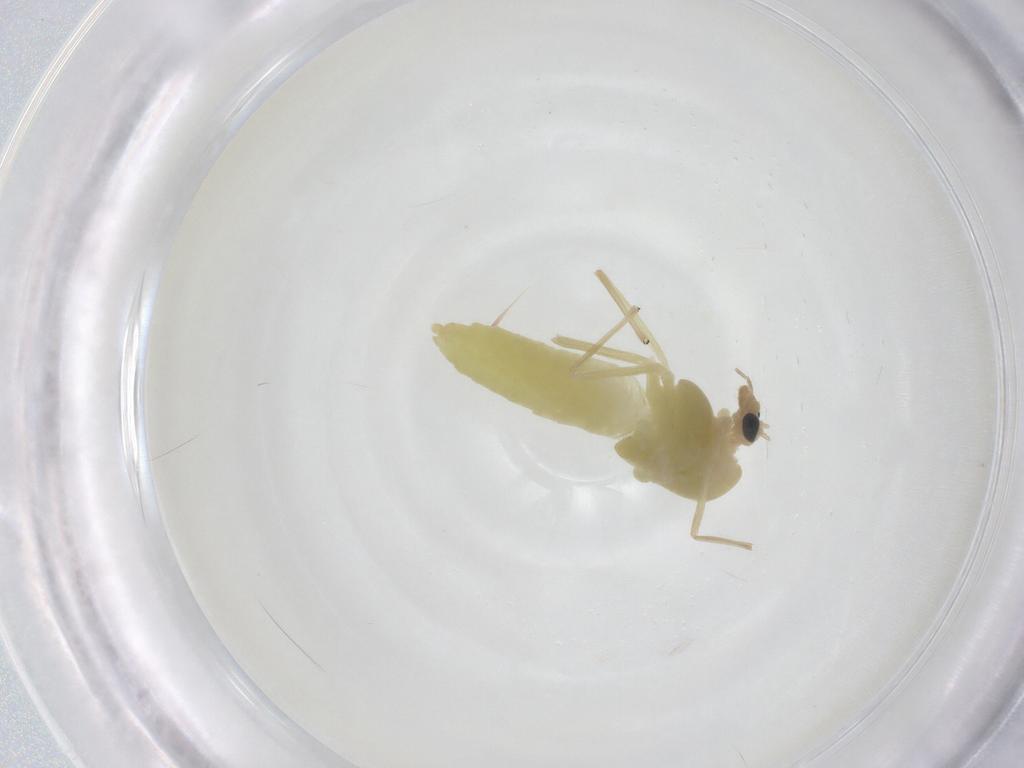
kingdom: Animalia
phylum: Arthropoda
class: Insecta
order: Diptera
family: Chironomidae
